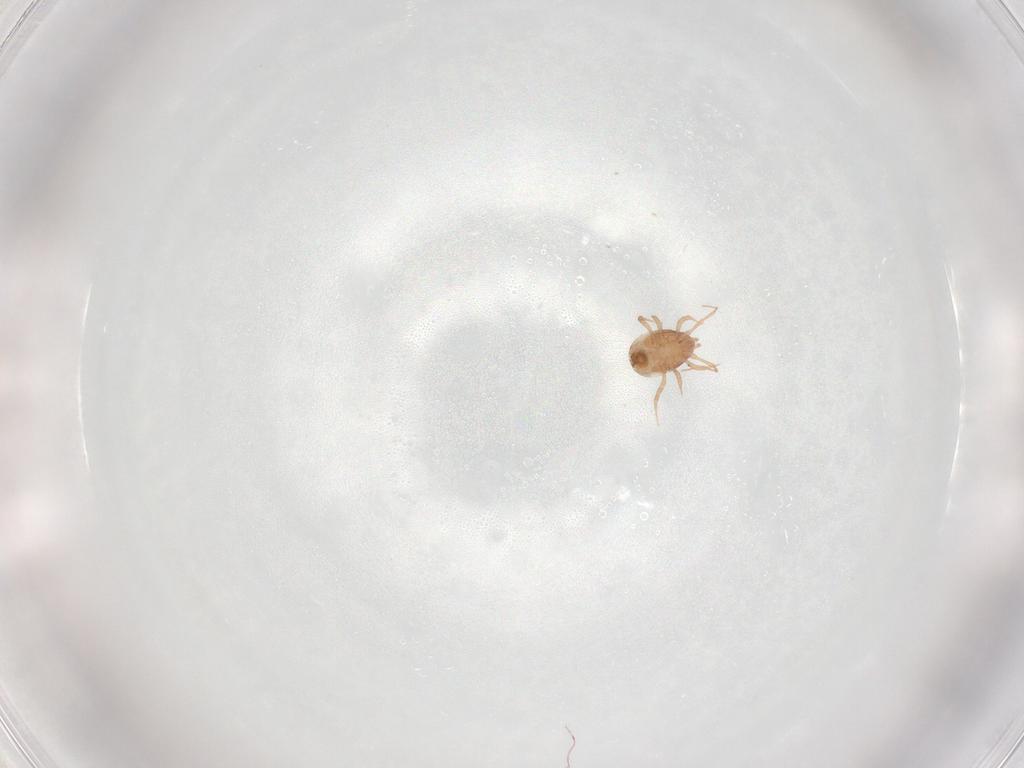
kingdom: Animalia
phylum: Arthropoda
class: Arachnida
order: Mesostigmata
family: Blattisociidae
